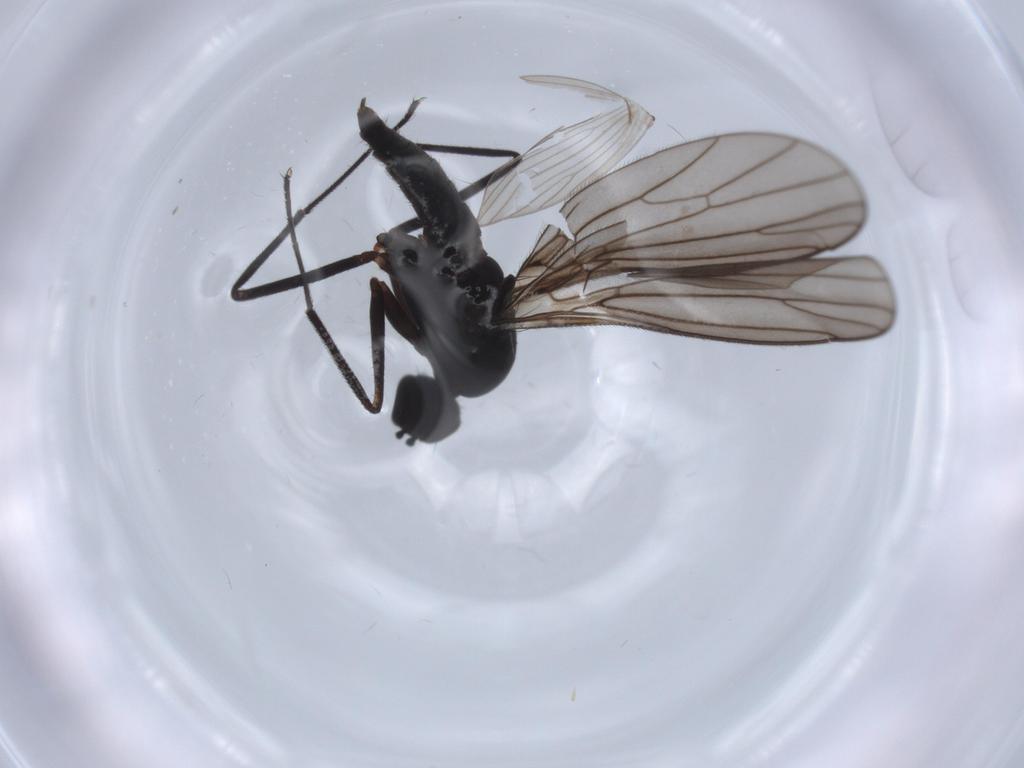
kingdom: Animalia
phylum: Arthropoda
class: Insecta
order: Diptera
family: Empididae
